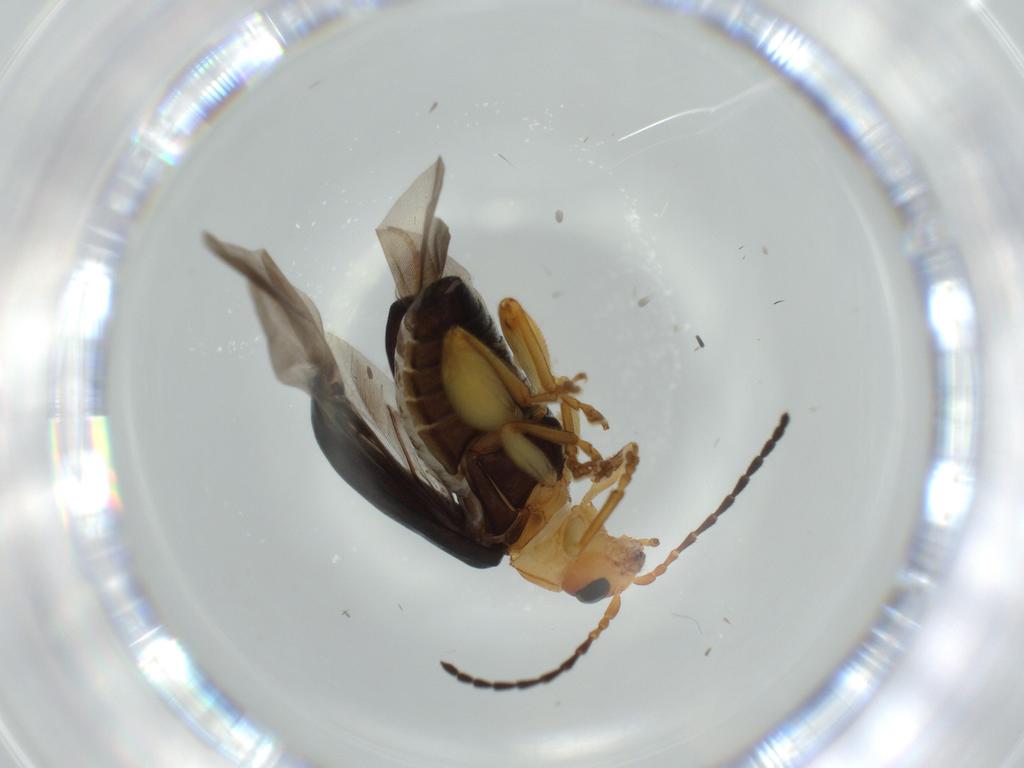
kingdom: Animalia
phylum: Arthropoda
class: Insecta
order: Coleoptera
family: Chrysomelidae
